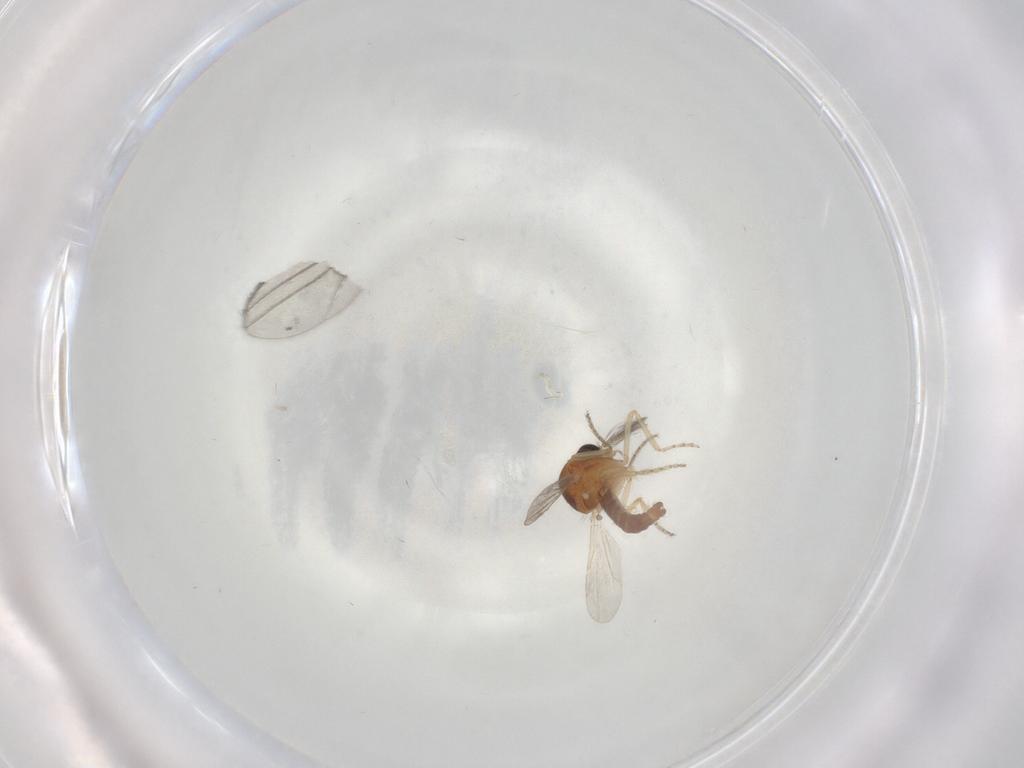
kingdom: Animalia
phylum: Arthropoda
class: Insecta
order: Diptera
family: Ceratopogonidae
